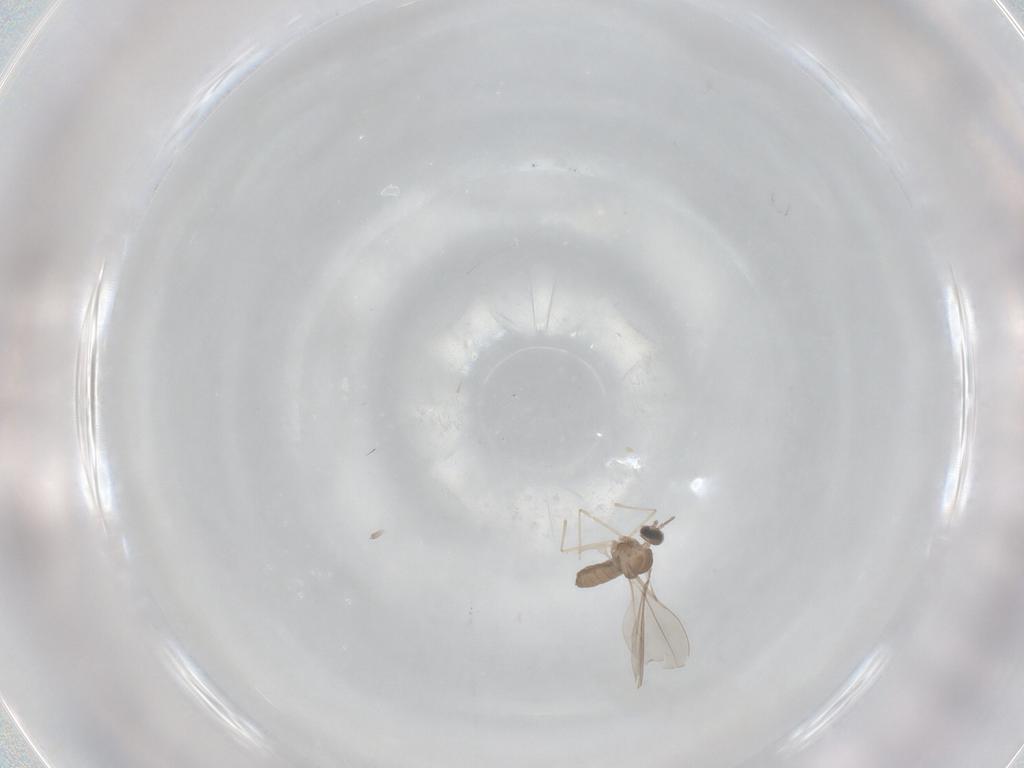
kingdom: Animalia
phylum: Arthropoda
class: Insecta
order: Diptera
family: Cecidomyiidae
